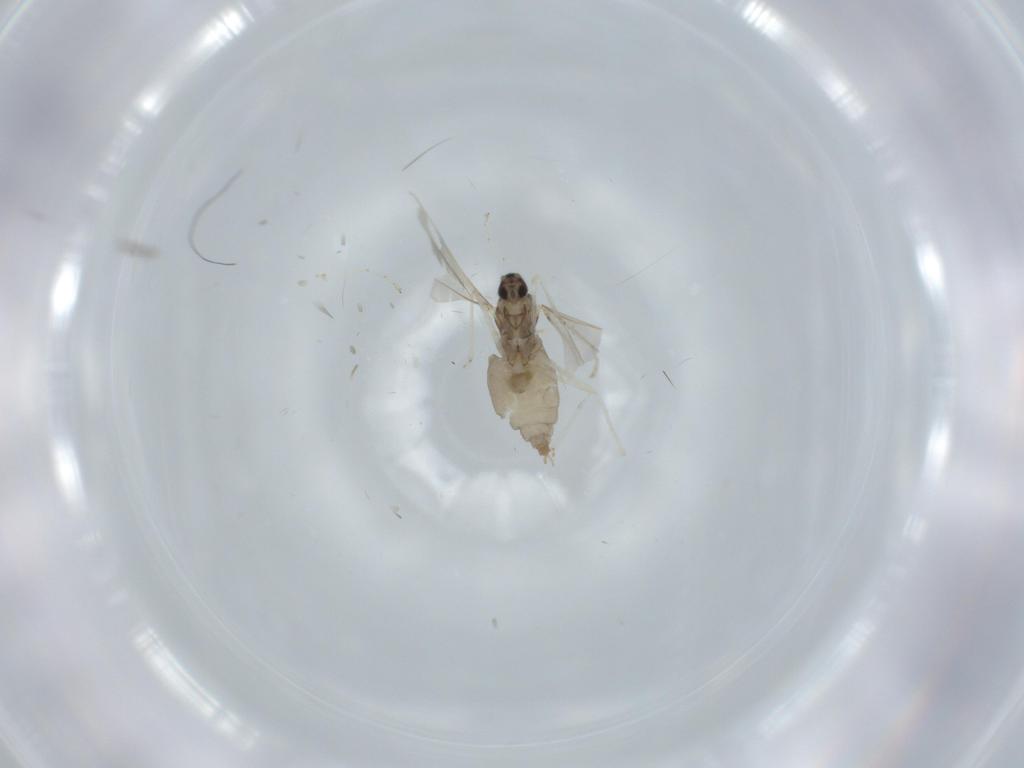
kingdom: Animalia
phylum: Arthropoda
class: Insecta
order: Diptera
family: Cecidomyiidae
